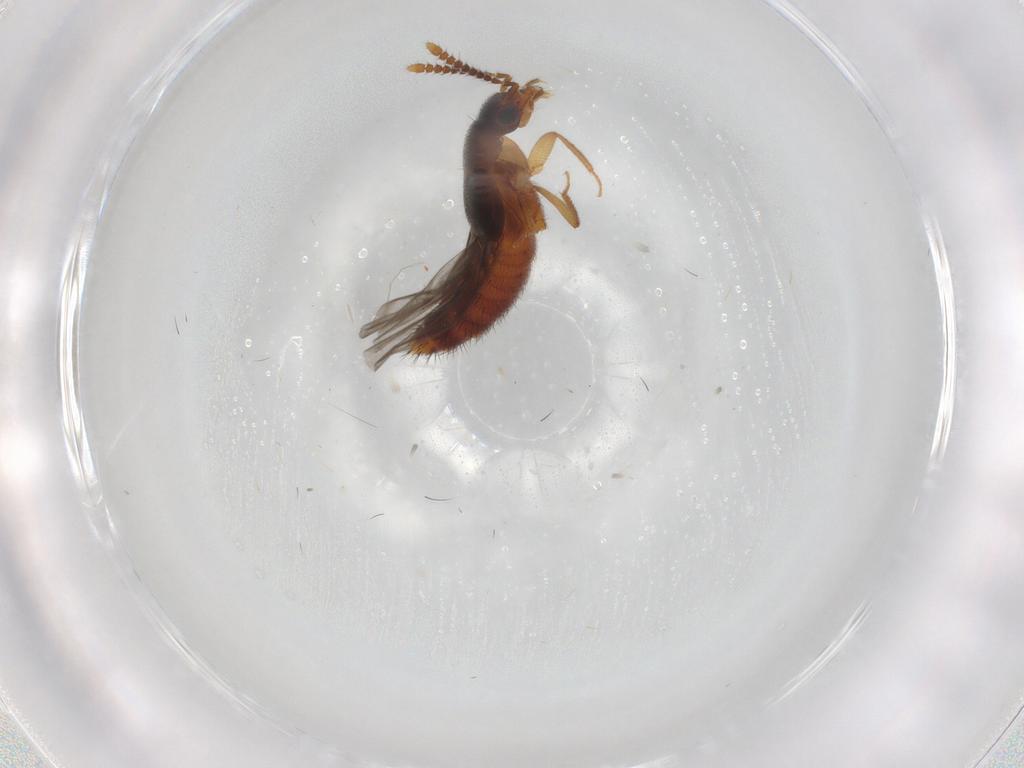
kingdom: Animalia
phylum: Arthropoda
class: Insecta
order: Coleoptera
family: Staphylinidae
